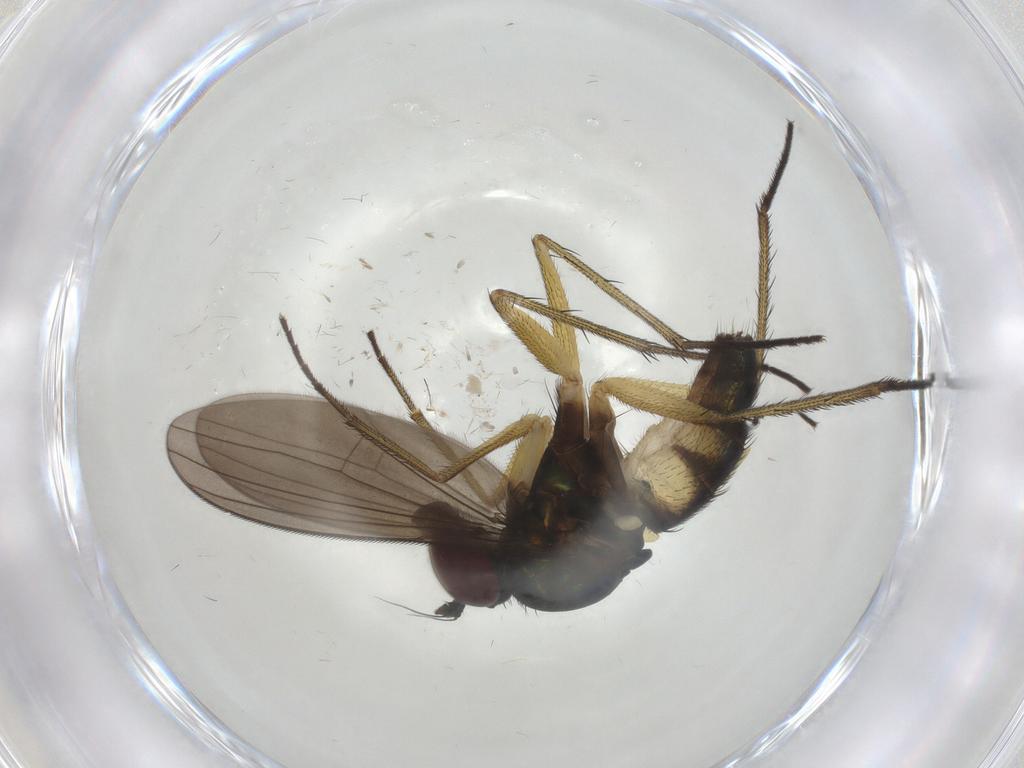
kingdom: Animalia
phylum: Arthropoda
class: Insecta
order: Diptera
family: Dolichopodidae
